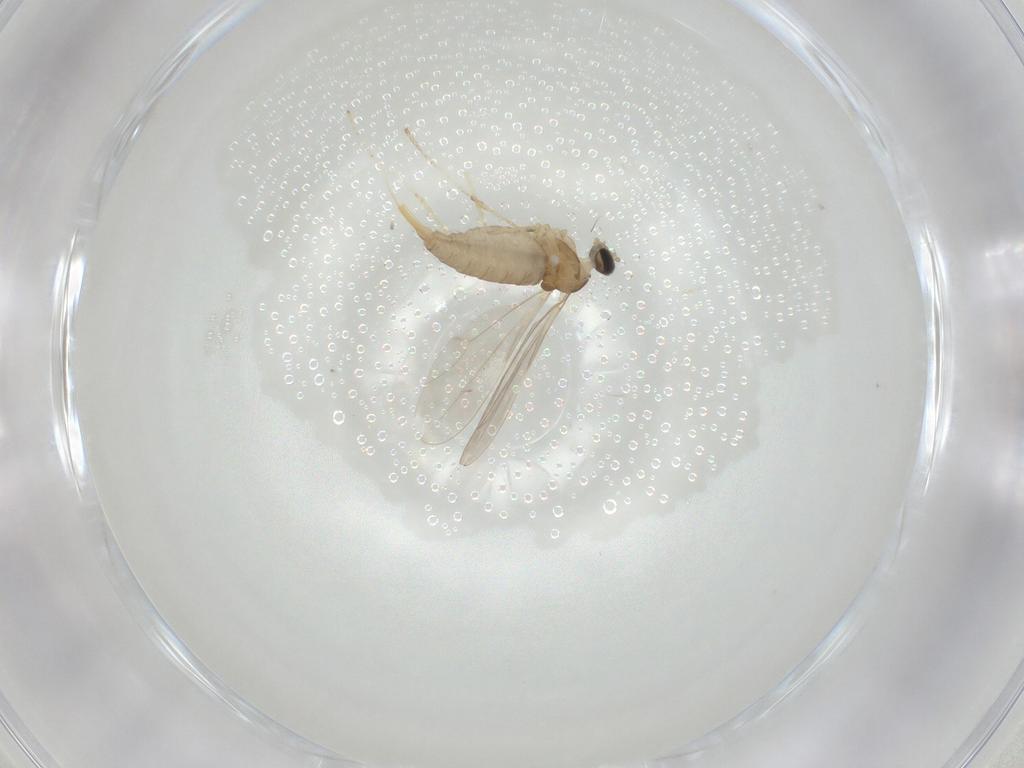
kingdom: Animalia
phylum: Arthropoda
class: Insecta
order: Diptera
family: Cecidomyiidae
